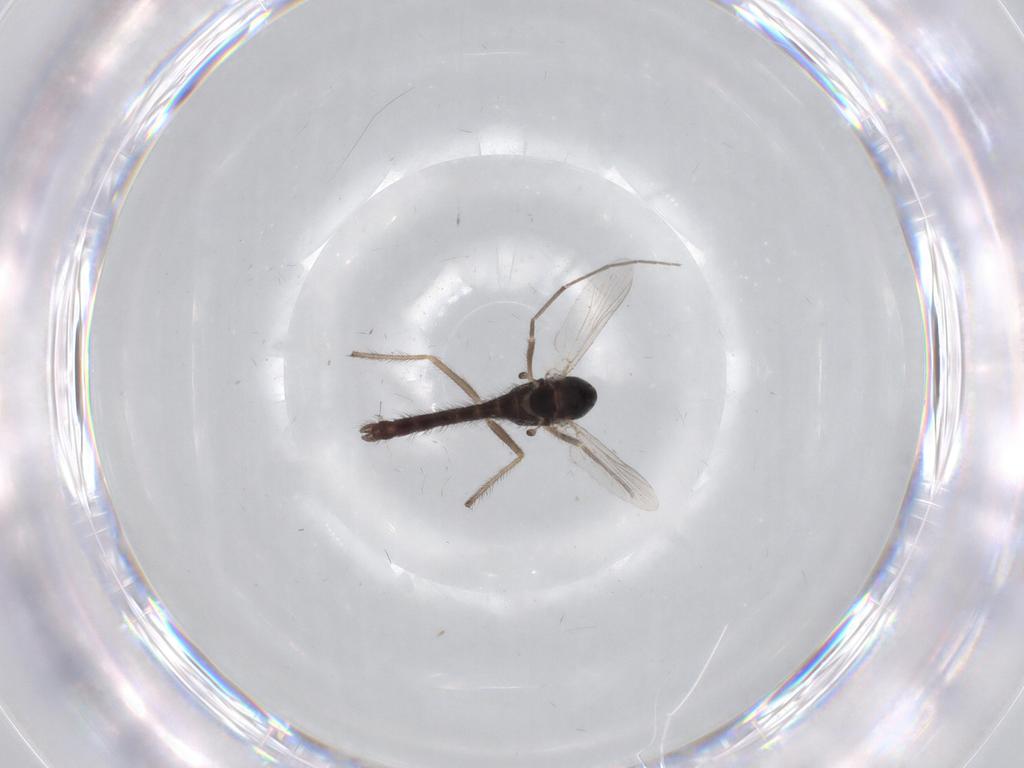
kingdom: Animalia
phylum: Arthropoda
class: Insecta
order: Diptera
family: Chironomidae
